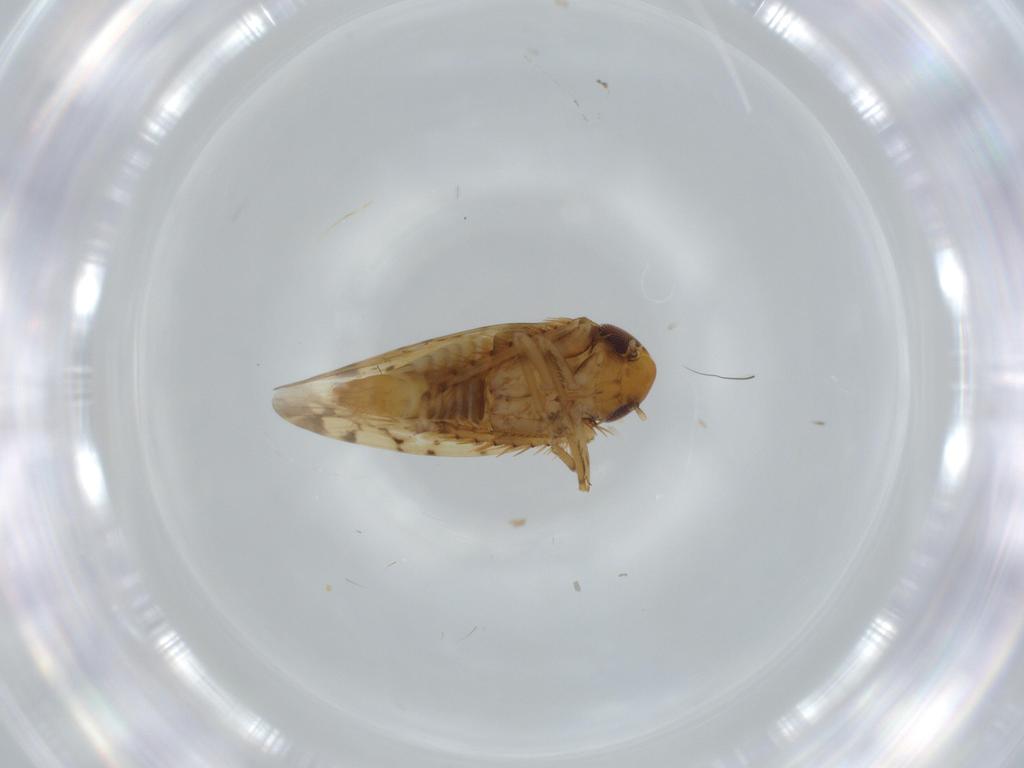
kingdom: Animalia
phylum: Arthropoda
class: Insecta
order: Hemiptera
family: Cicadellidae
